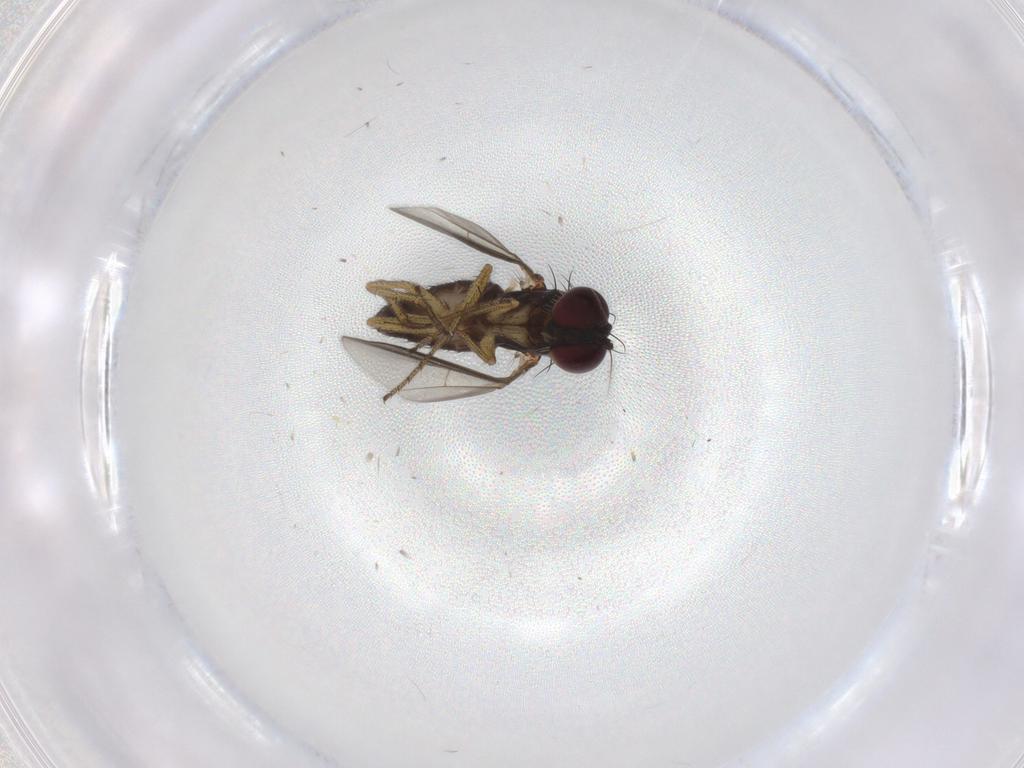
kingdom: Animalia
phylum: Arthropoda
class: Insecta
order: Diptera
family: Chironomidae
